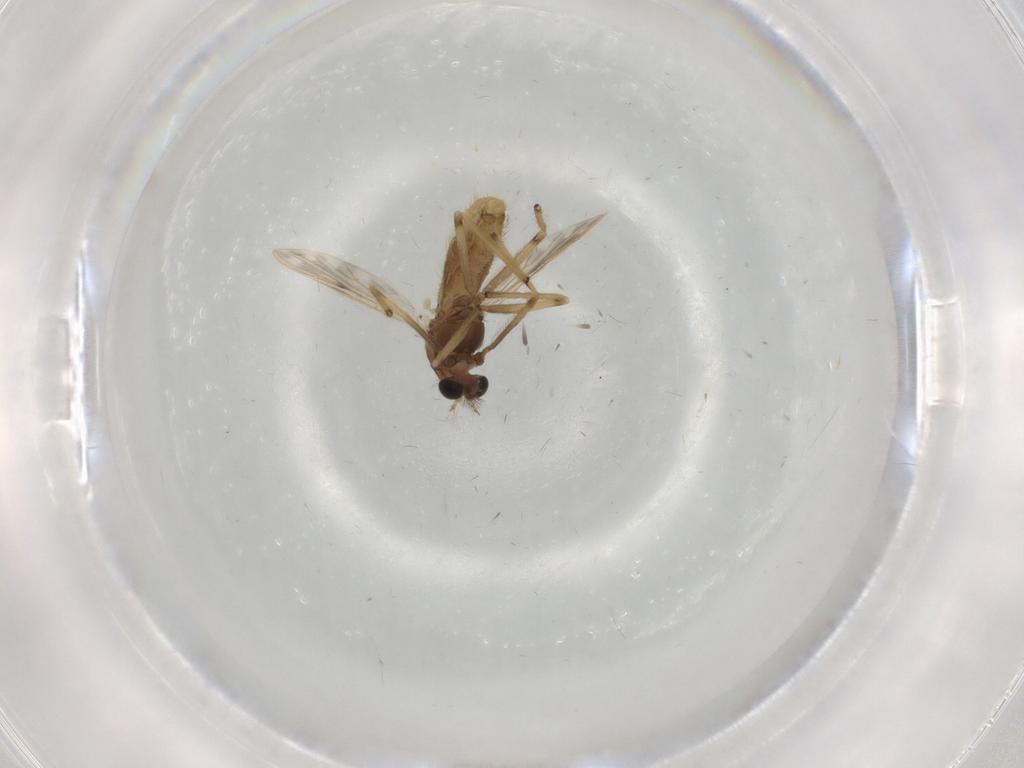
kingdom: Animalia
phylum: Arthropoda
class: Insecta
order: Diptera
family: Chironomidae
